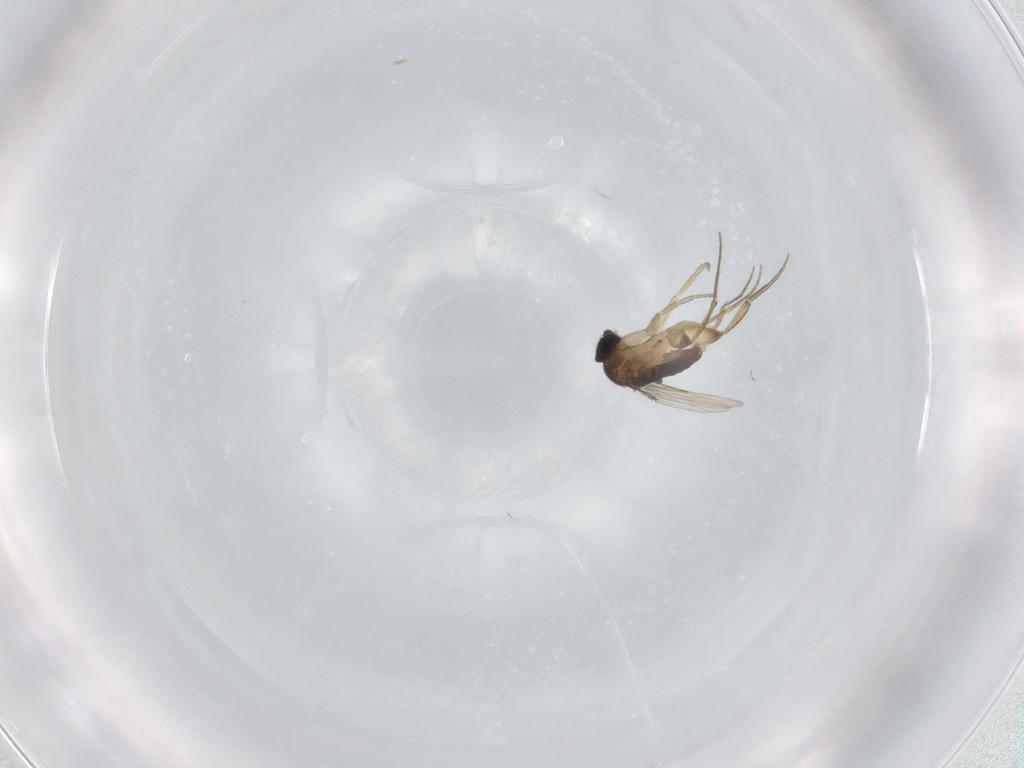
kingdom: Animalia
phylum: Arthropoda
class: Insecta
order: Diptera
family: Phoridae
